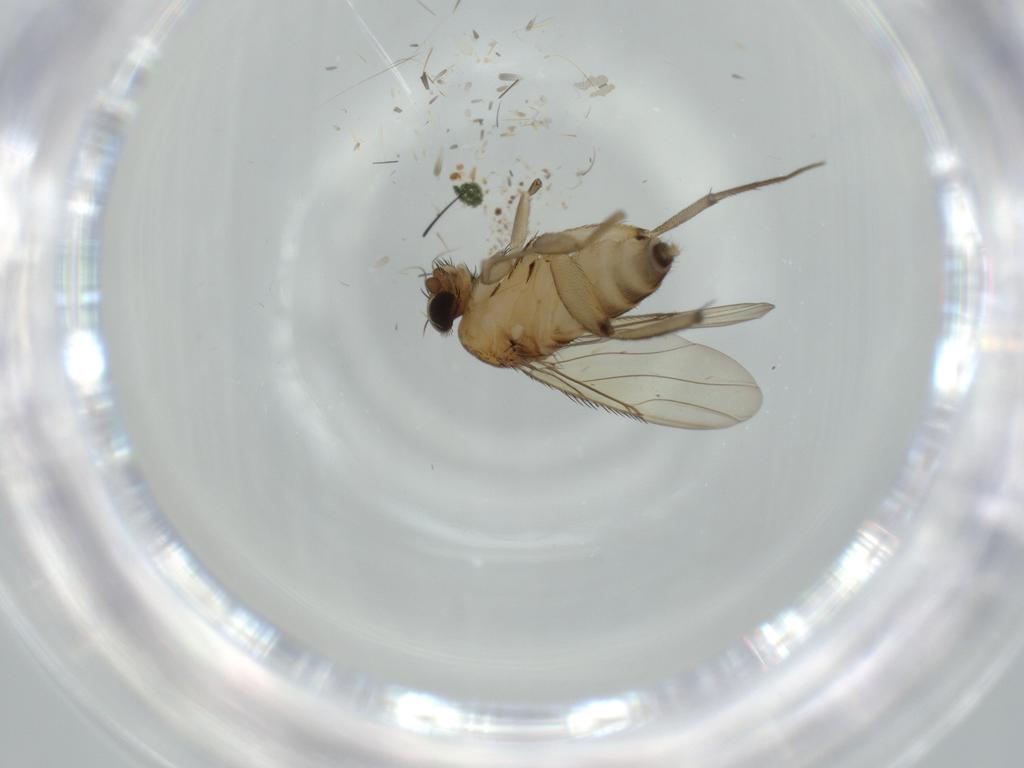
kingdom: Animalia
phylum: Arthropoda
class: Insecta
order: Diptera
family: Phoridae
